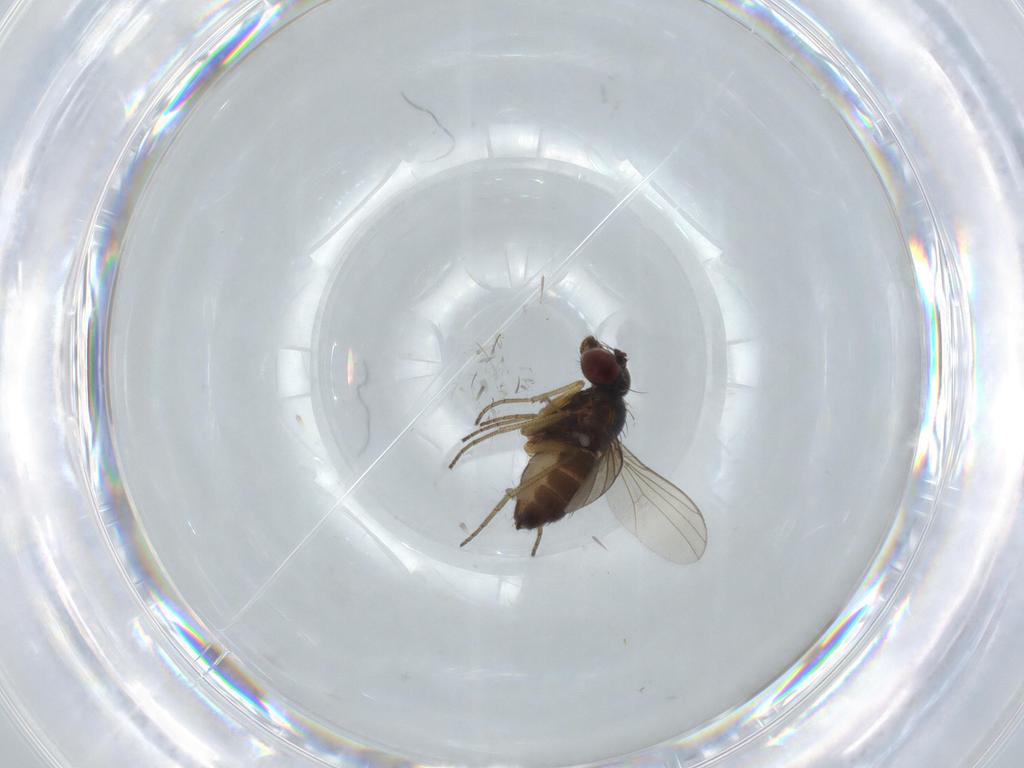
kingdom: Animalia
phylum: Arthropoda
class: Insecta
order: Diptera
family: Dolichopodidae
